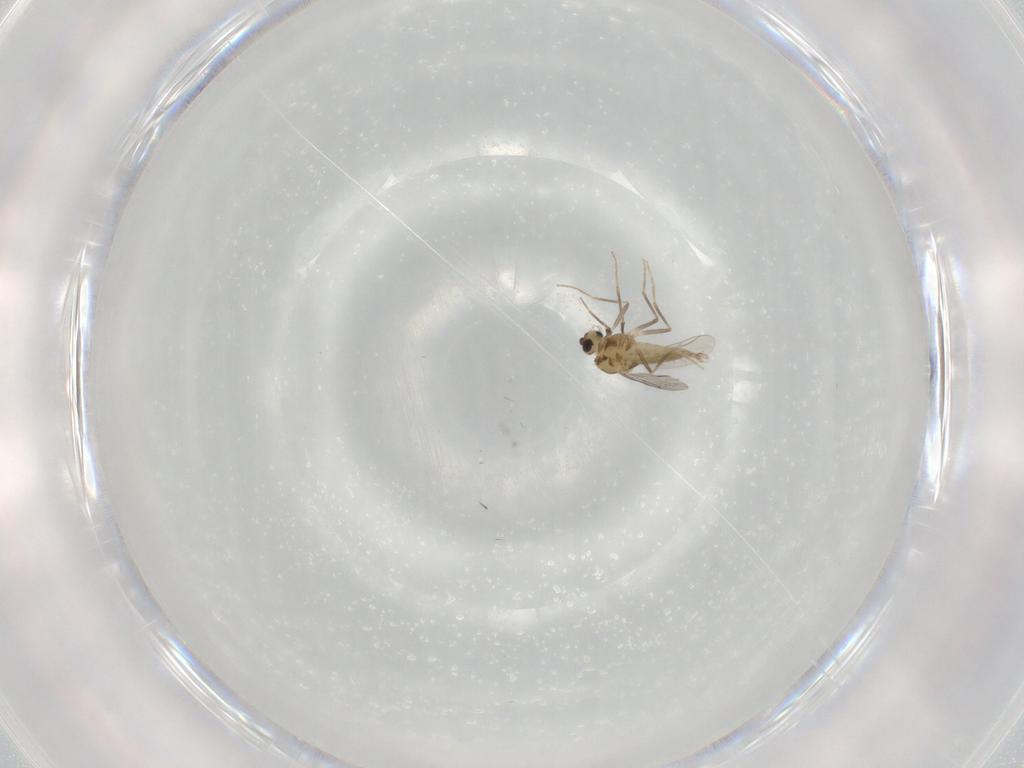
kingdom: Animalia
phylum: Arthropoda
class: Insecta
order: Diptera
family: Chironomidae
